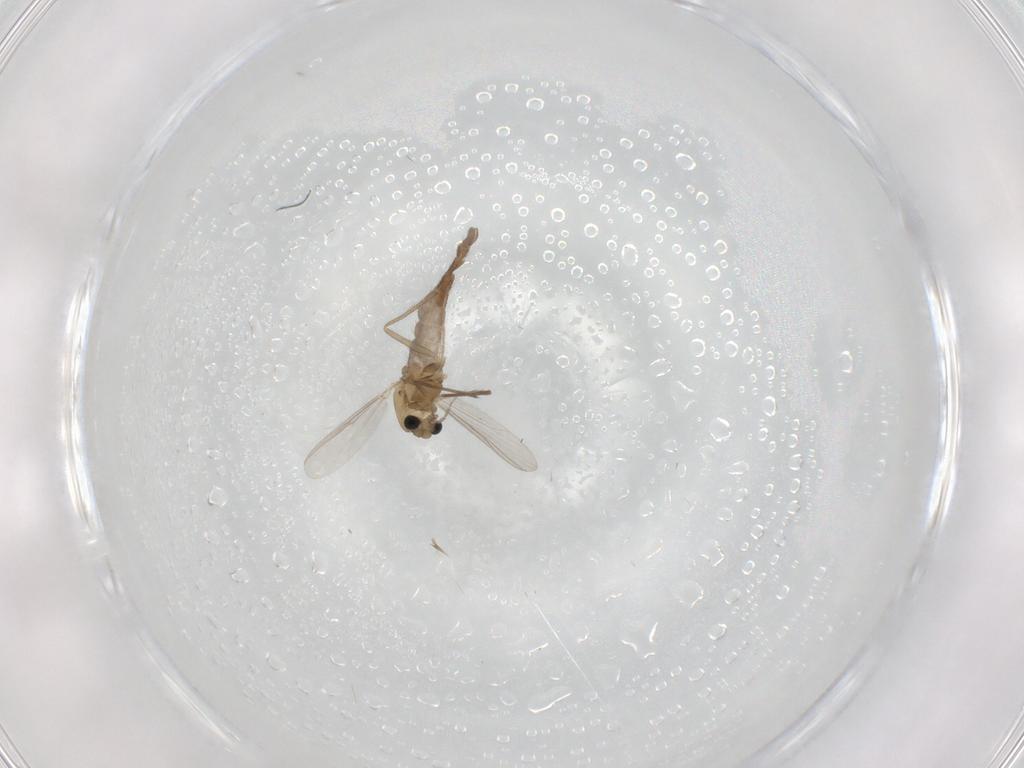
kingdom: Animalia
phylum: Arthropoda
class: Insecta
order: Diptera
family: Chironomidae
